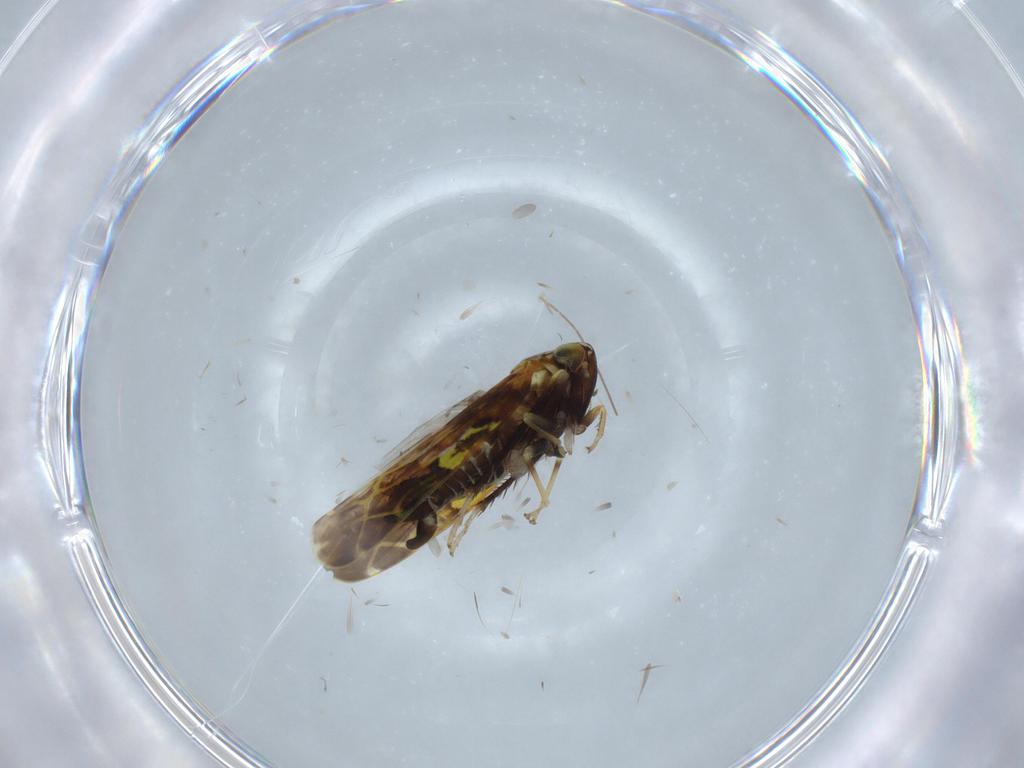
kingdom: Animalia
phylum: Arthropoda
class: Insecta
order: Hemiptera
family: Cicadellidae
